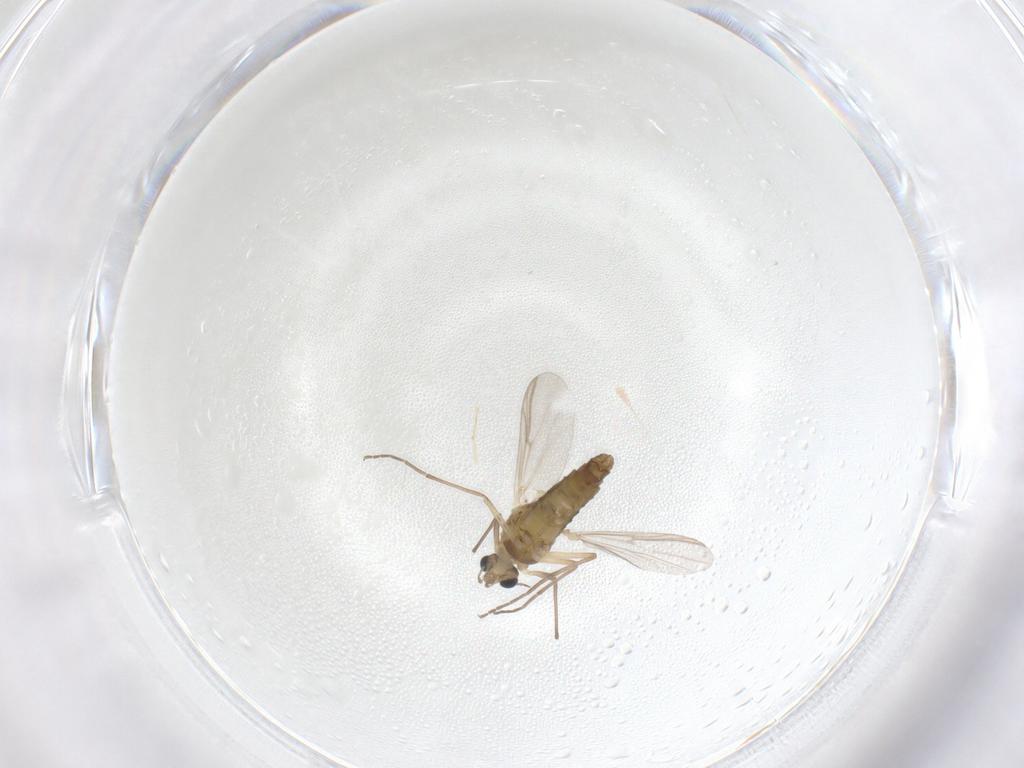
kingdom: Animalia
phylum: Arthropoda
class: Insecta
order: Diptera
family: Chironomidae
